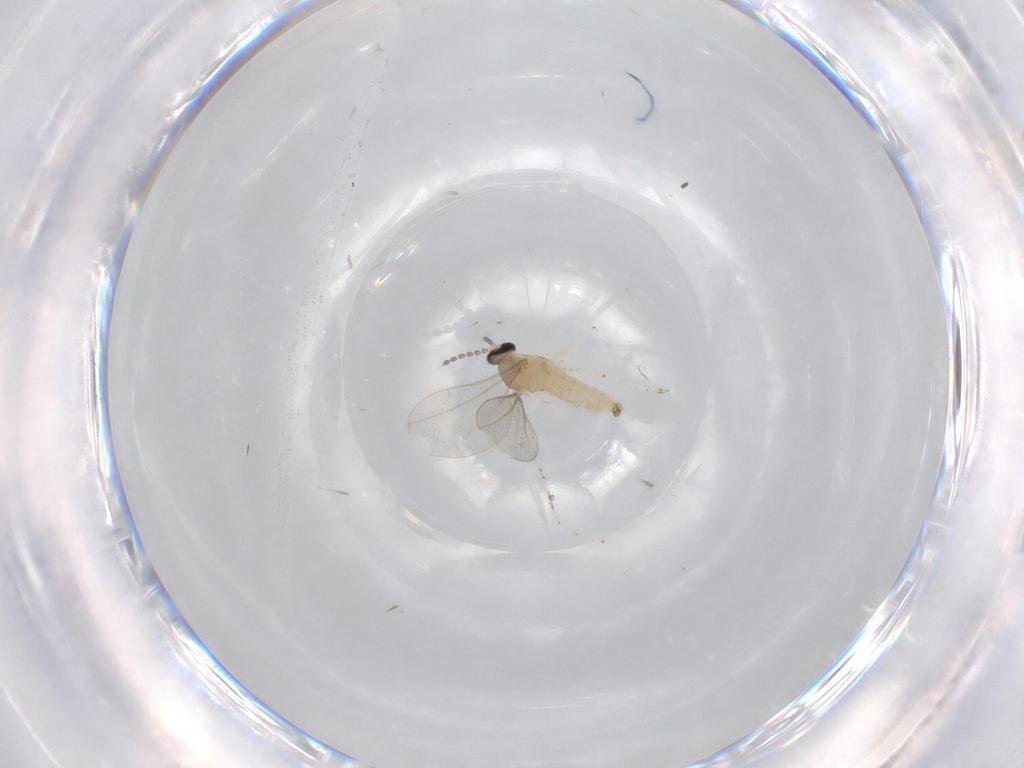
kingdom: Animalia
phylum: Arthropoda
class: Insecta
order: Diptera
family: Cecidomyiidae
